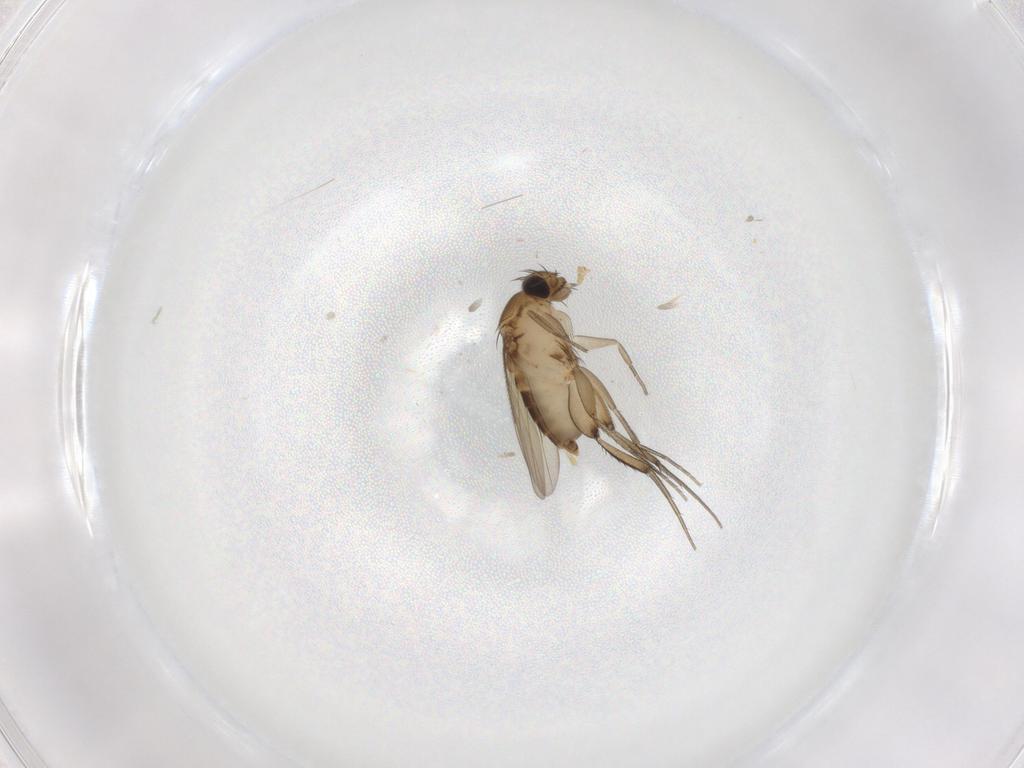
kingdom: Animalia
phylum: Arthropoda
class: Insecta
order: Diptera
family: Phoridae
